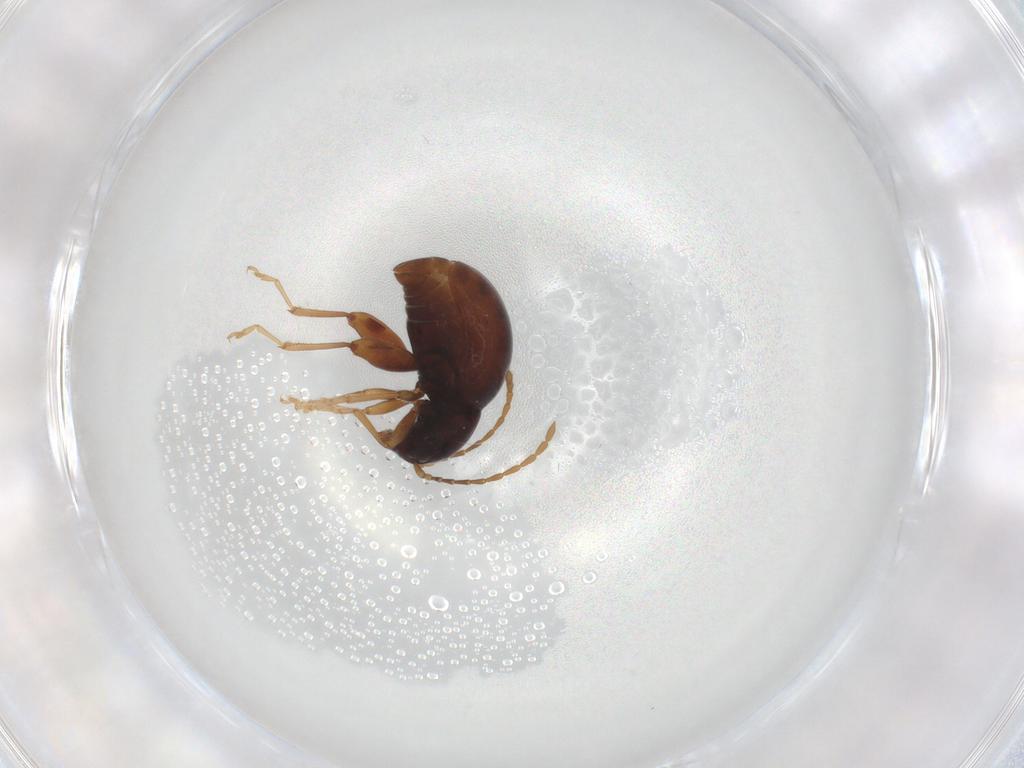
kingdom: Animalia
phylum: Arthropoda
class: Insecta
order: Coleoptera
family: Chrysomelidae
